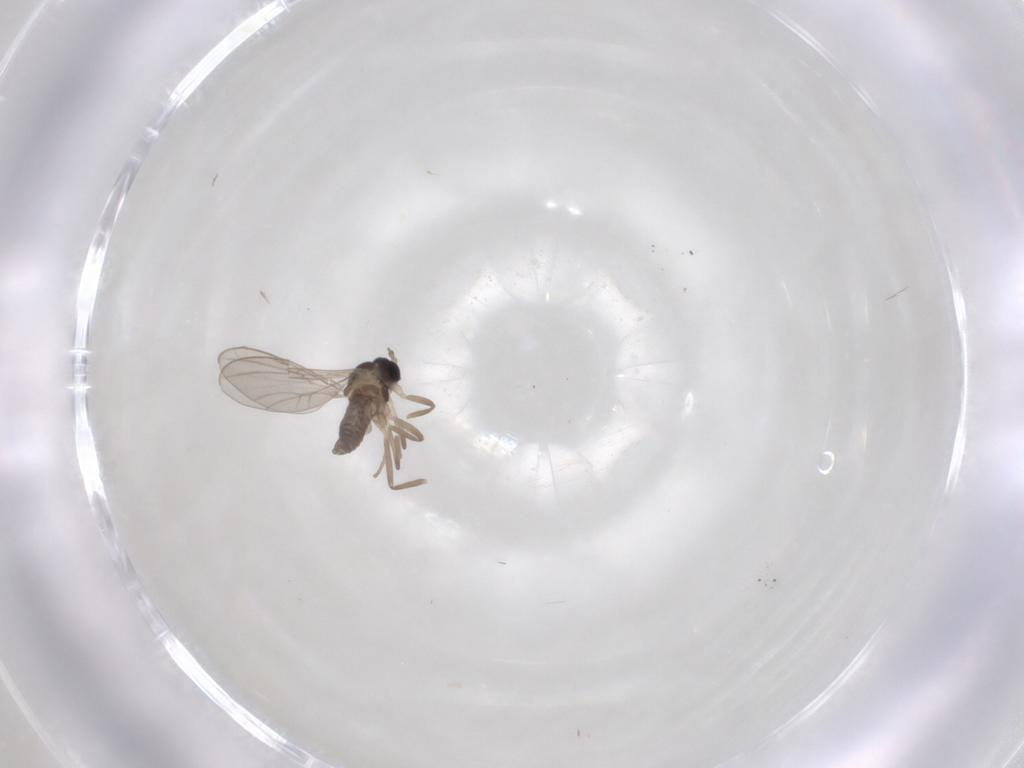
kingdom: Animalia
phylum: Arthropoda
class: Insecta
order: Diptera
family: Cecidomyiidae
